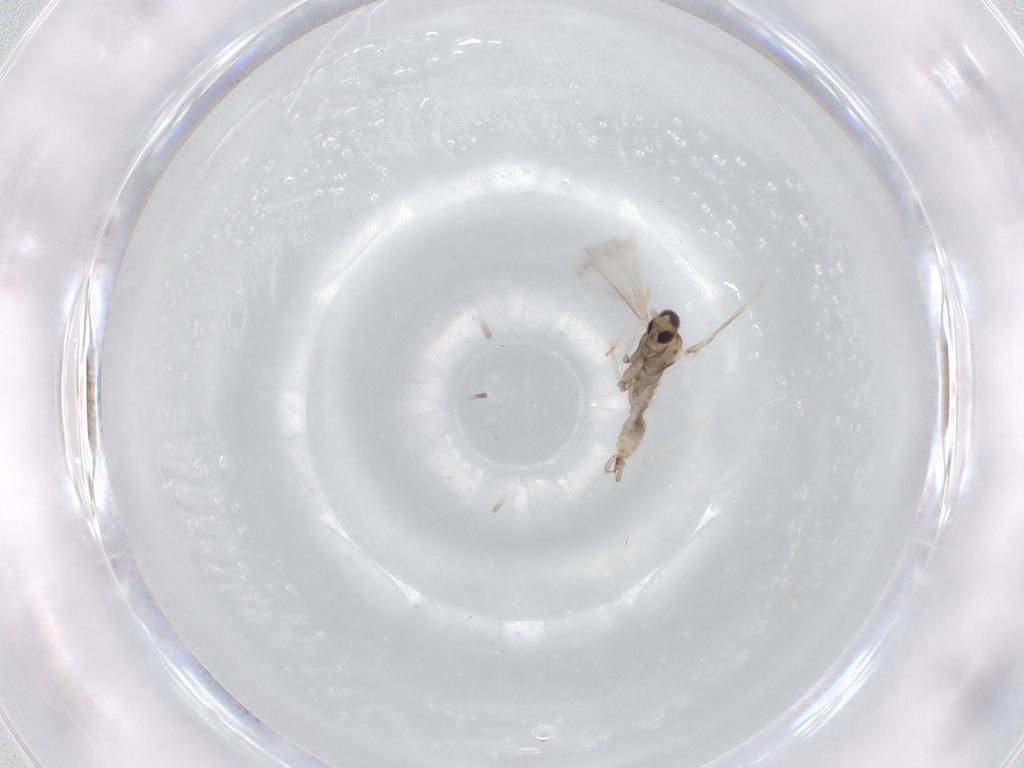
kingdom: Animalia
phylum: Arthropoda
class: Insecta
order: Diptera
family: Cecidomyiidae
